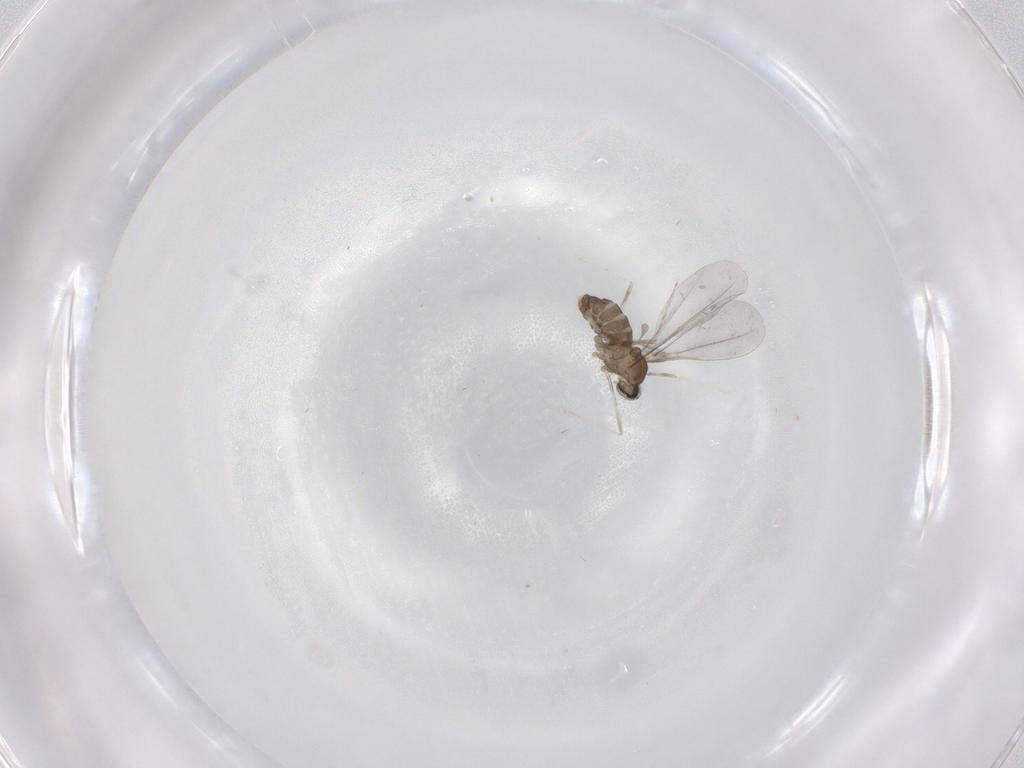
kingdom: Animalia
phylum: Arthropoda
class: Insecta
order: Diptera
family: Cecidomyiidae
